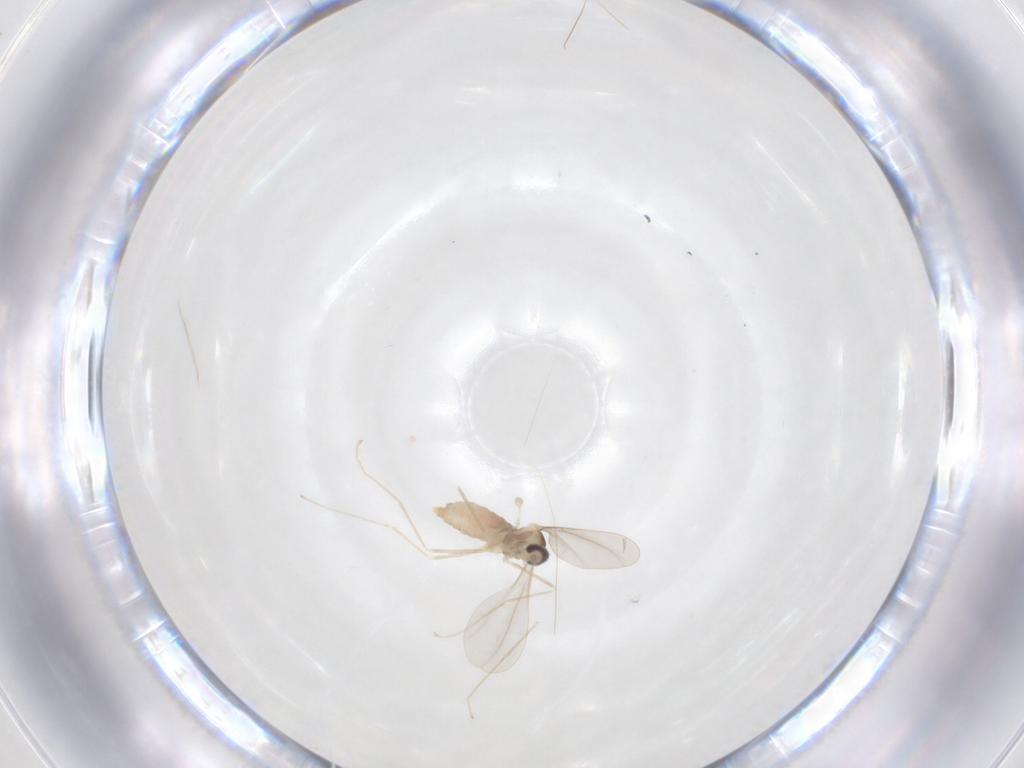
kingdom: Animalia
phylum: Arthropoda
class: Insecta
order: Diptera
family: Cecidomyiidae
